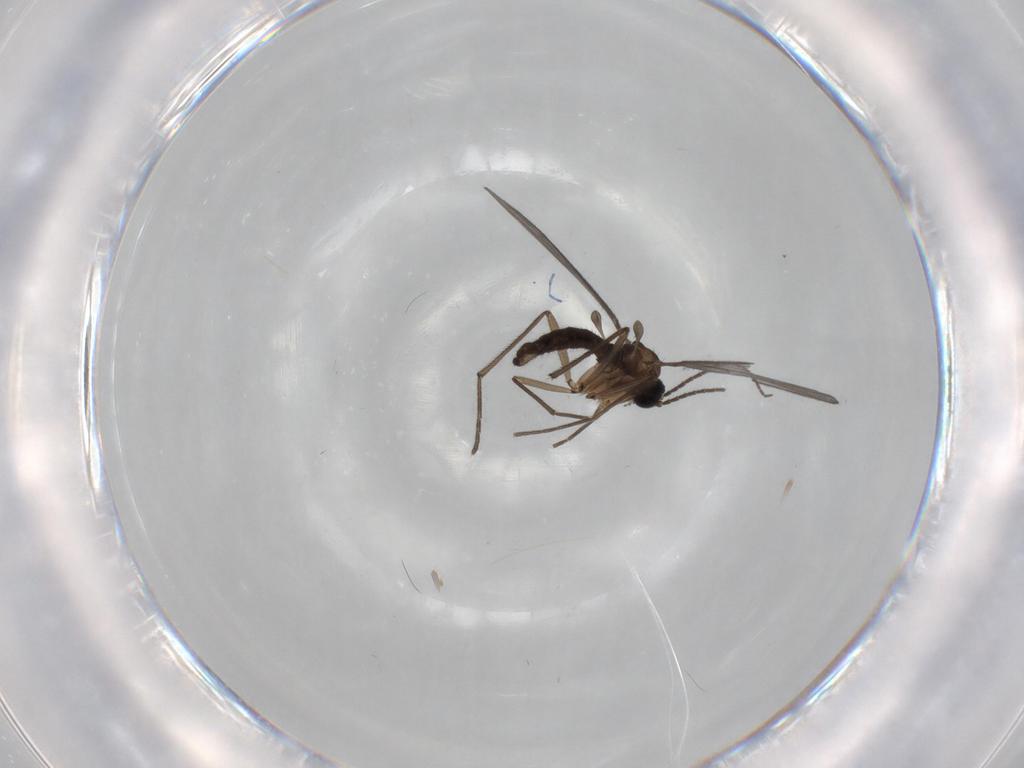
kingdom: Animalia
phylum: Arthropoda
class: Insecta
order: Diptera
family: Sciaridae
